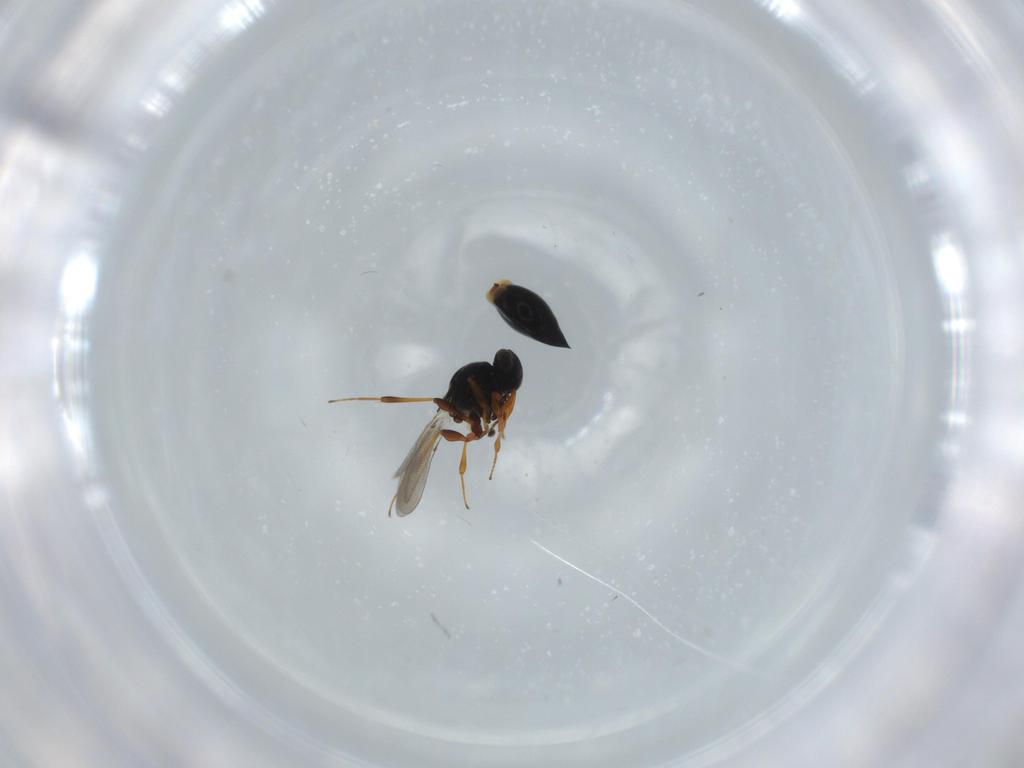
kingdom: Animalia
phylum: Arthropoda
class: Insecta
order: Hymenoptera
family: Platygastridae
